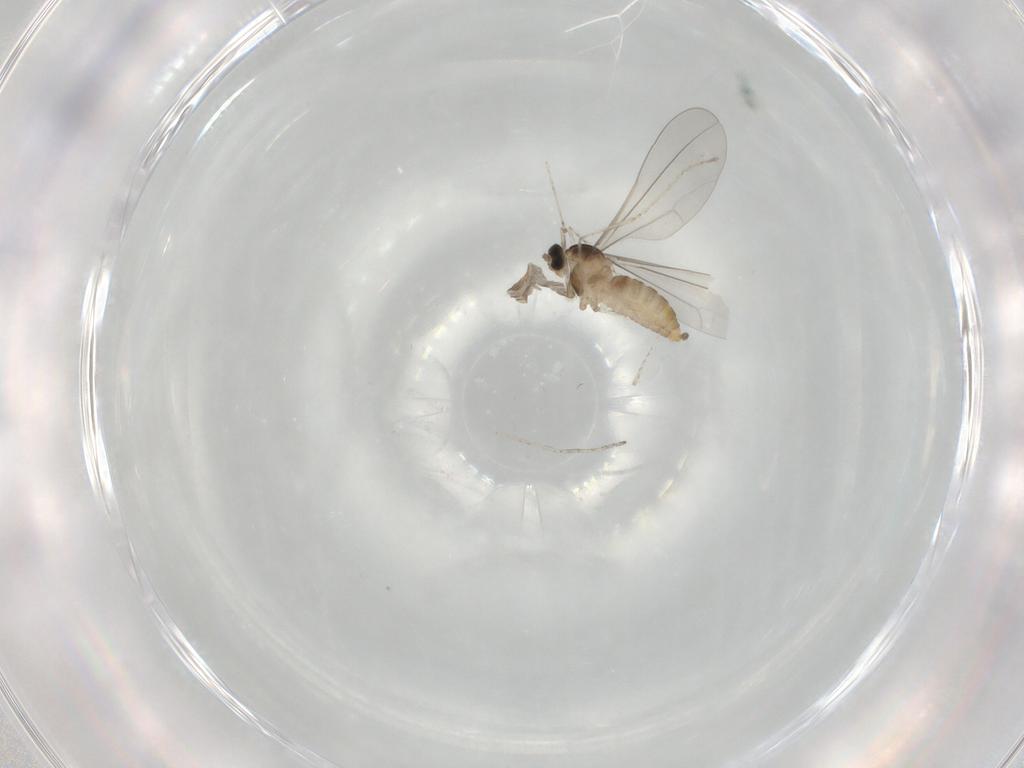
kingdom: Animalia
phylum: Arthropoda
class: Insecta
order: Diptera
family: Cecidomyiidae
